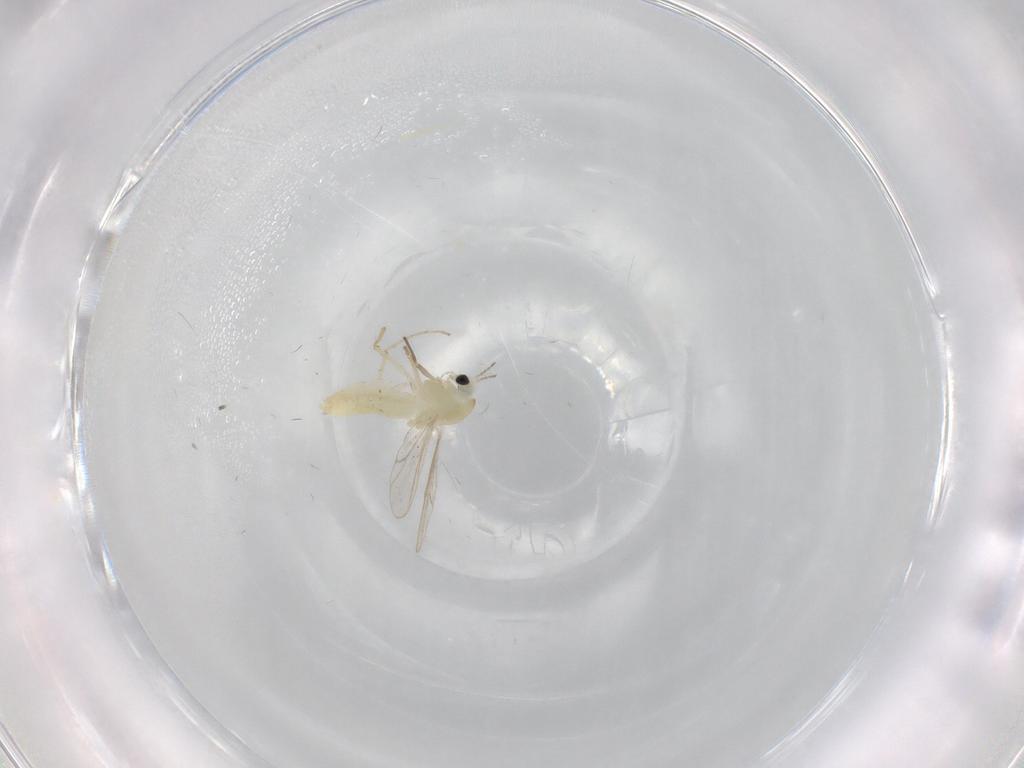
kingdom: Animalia
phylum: Arthropoda
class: Insecta
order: Diptera
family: Chironomidae
